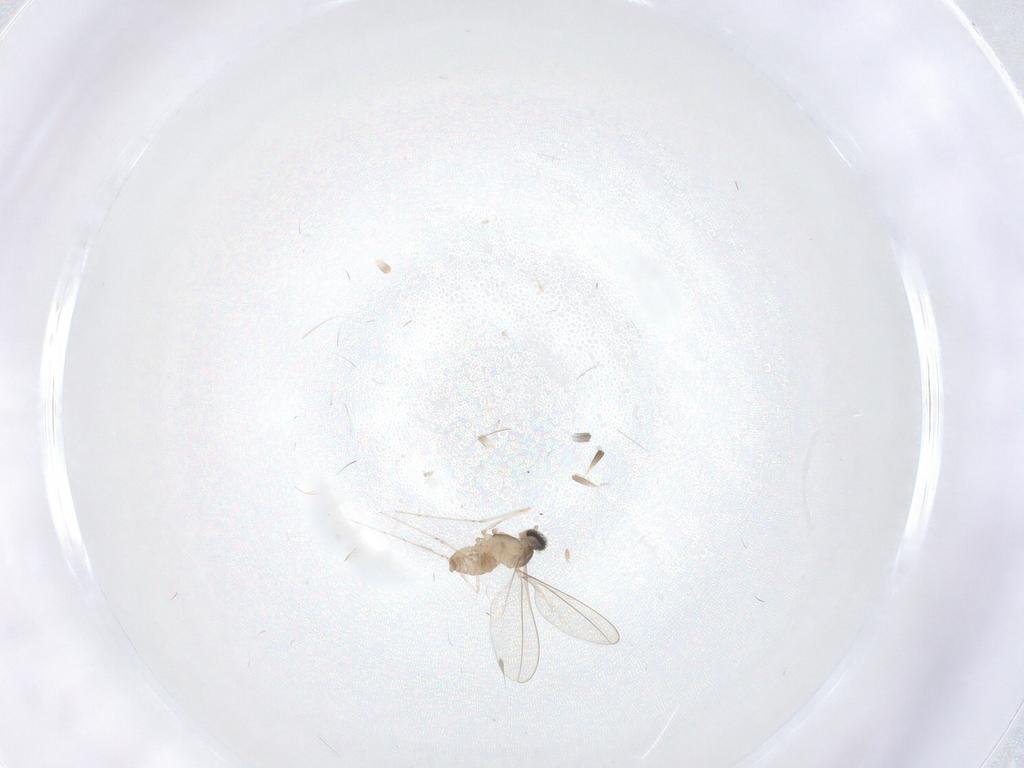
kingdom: Animalia
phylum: Arthropoda
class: Insecta
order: Diptera
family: Cecidomyiidae
